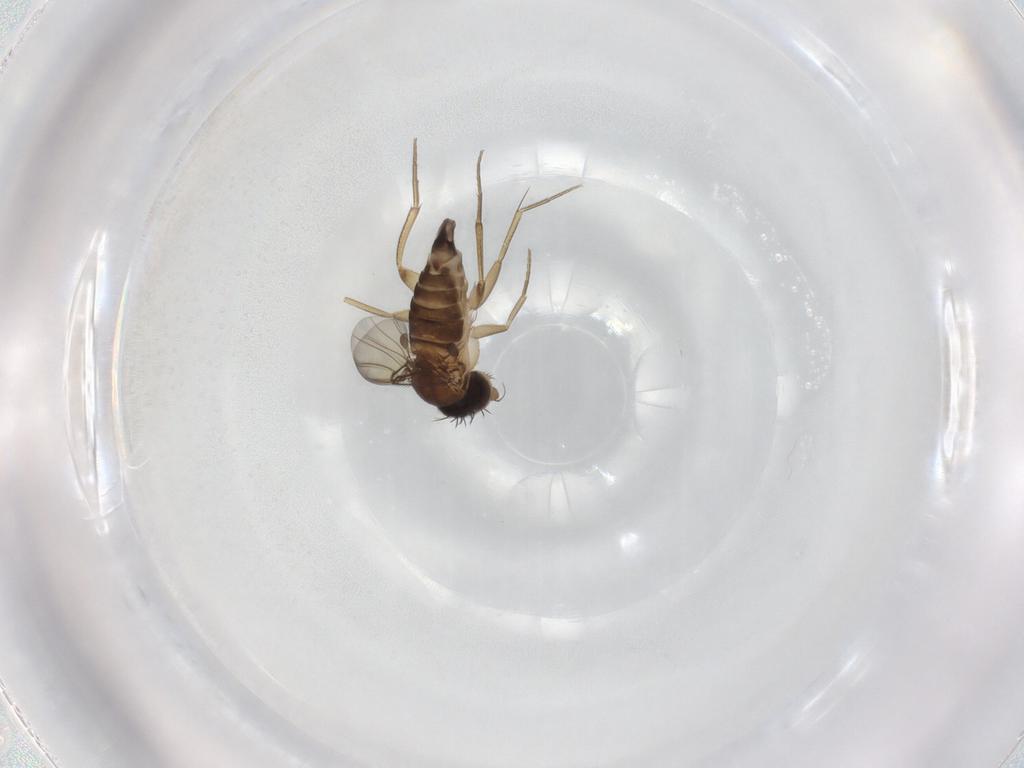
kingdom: Animalia
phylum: Arthropoda
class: Insecta
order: Diptera
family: Phoridae
